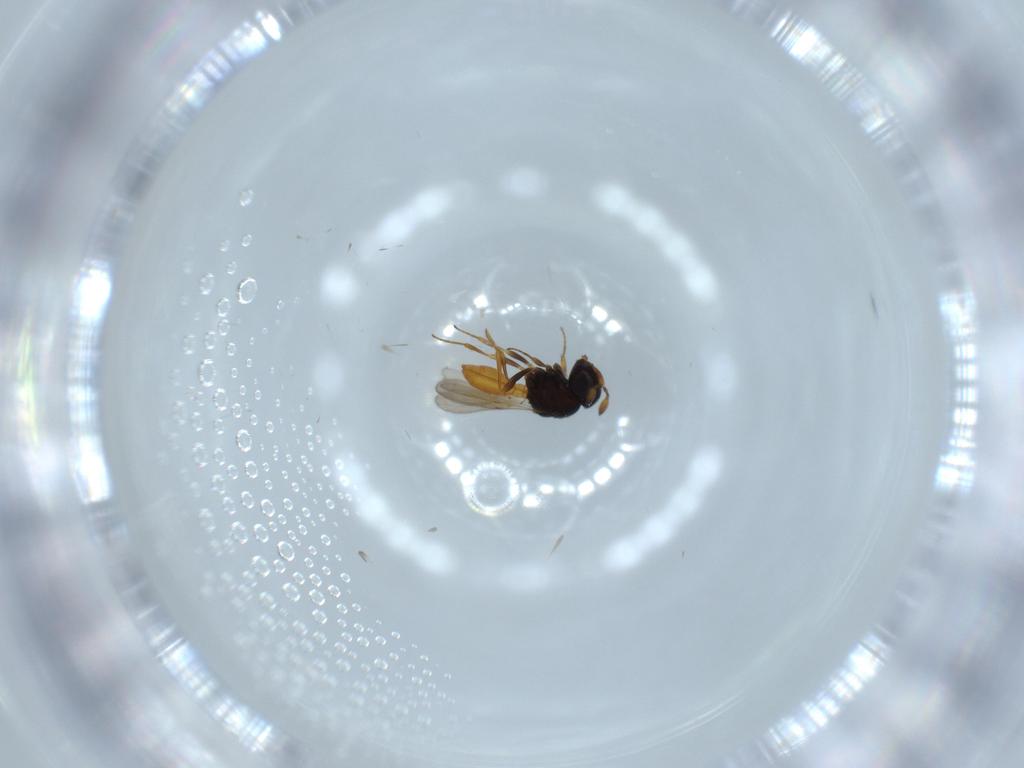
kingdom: Animalia
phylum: Arthropoda
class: Insecta
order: Hymenoptera
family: Scelionidae
